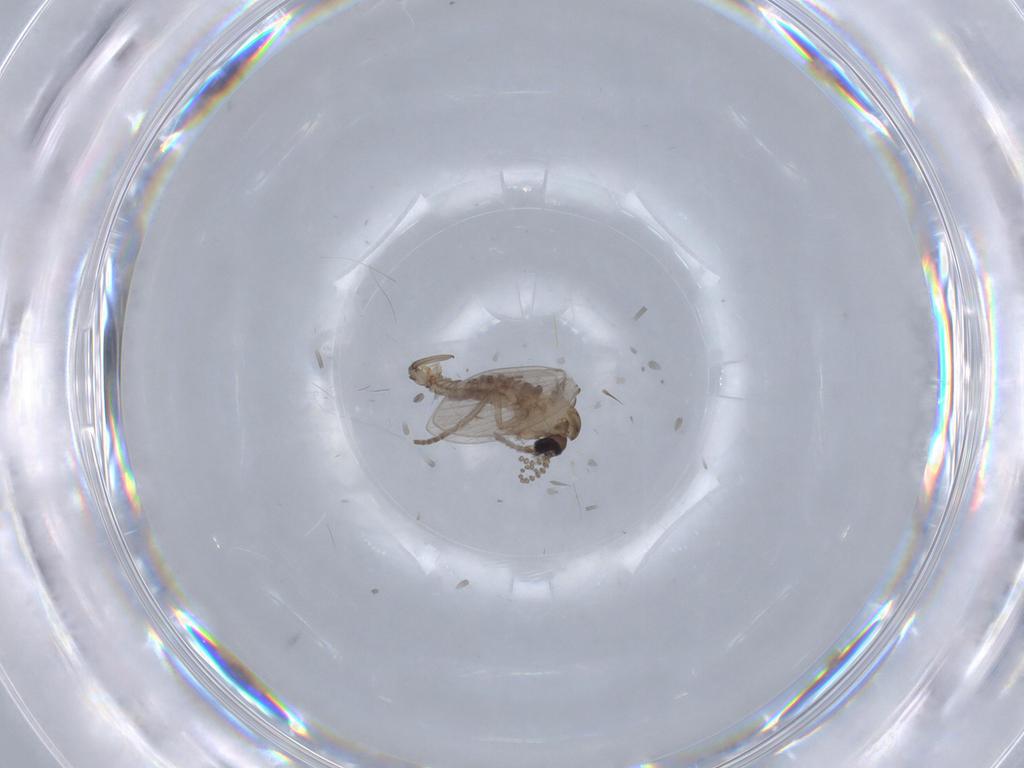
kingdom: Animalia
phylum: Arthropoda
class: Insecta
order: Diptera
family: Psychodidae
